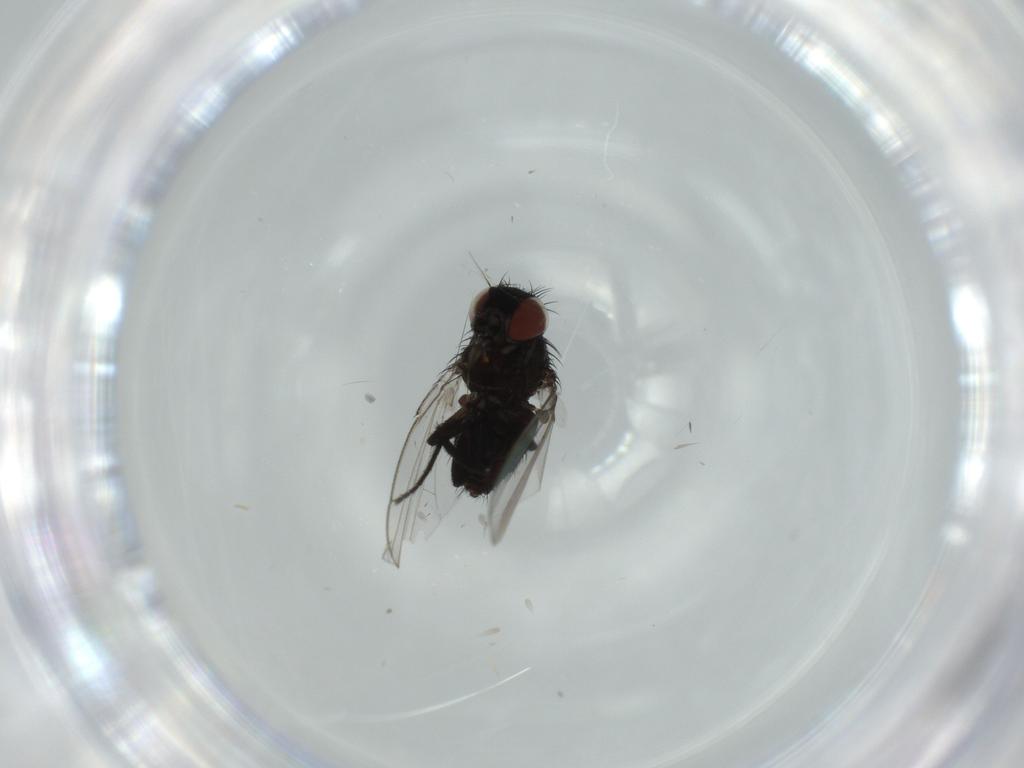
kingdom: Animalia
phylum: Arthropoda
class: Insecta
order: Diptera
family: Milichiidae
